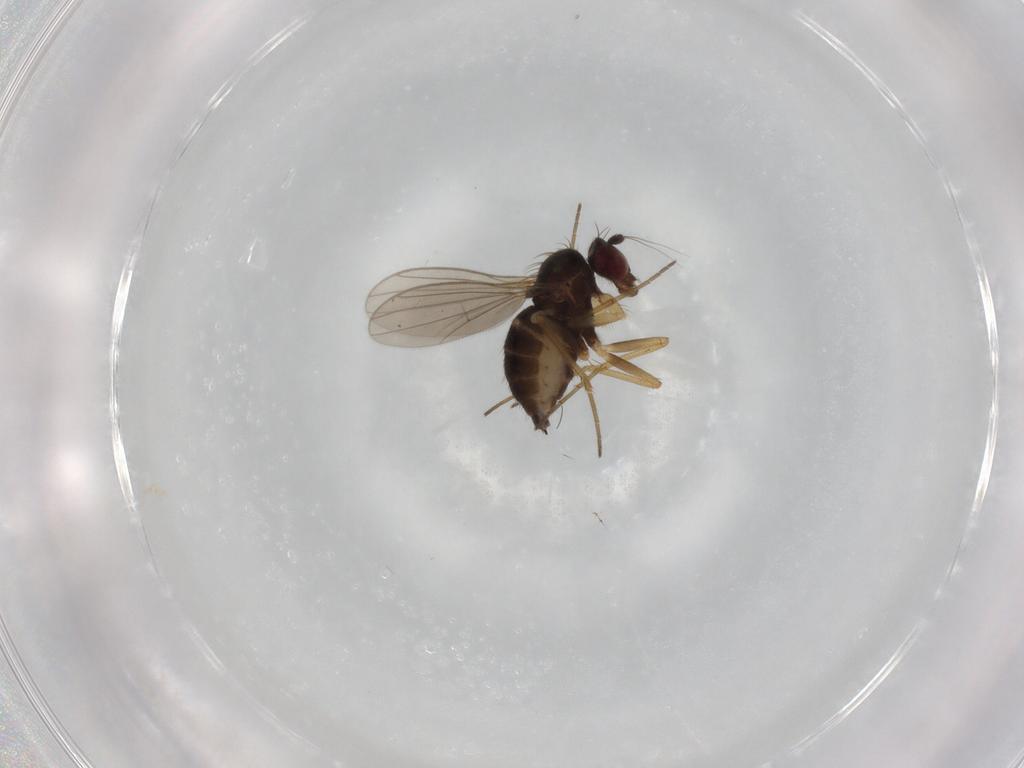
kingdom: Animalia
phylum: Arthropoda
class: Insecta
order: Diptera
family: Dolichopodidae
